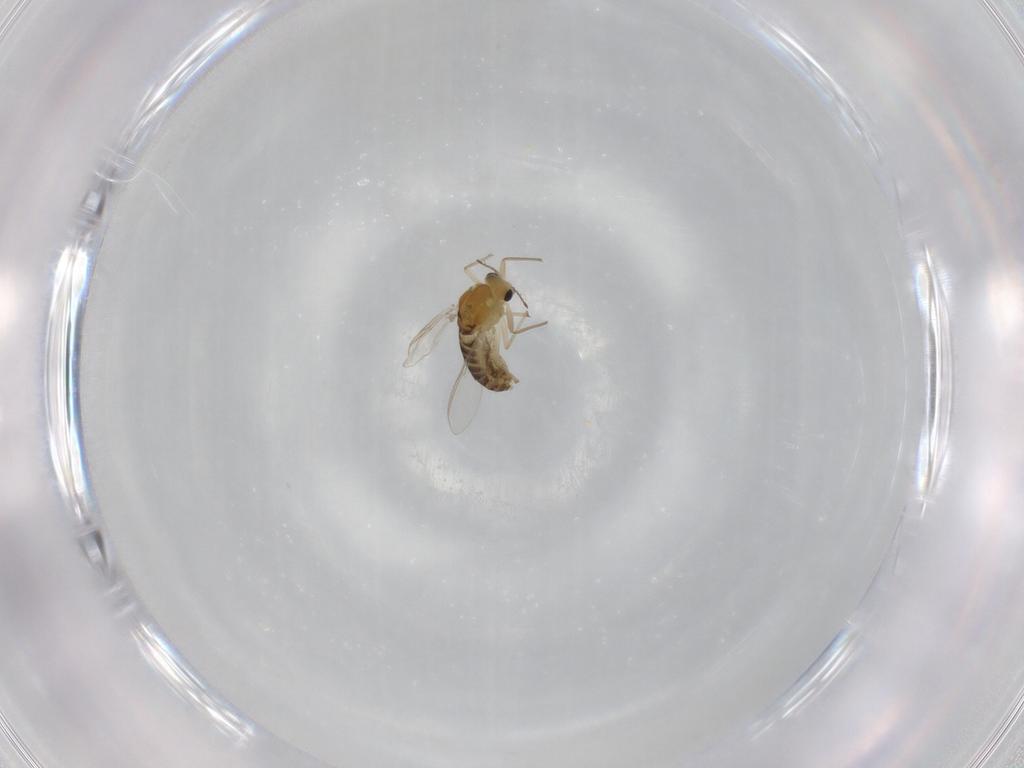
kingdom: Animalia
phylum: Arthropoda
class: Insecta
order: Diptera
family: Chironomidae
